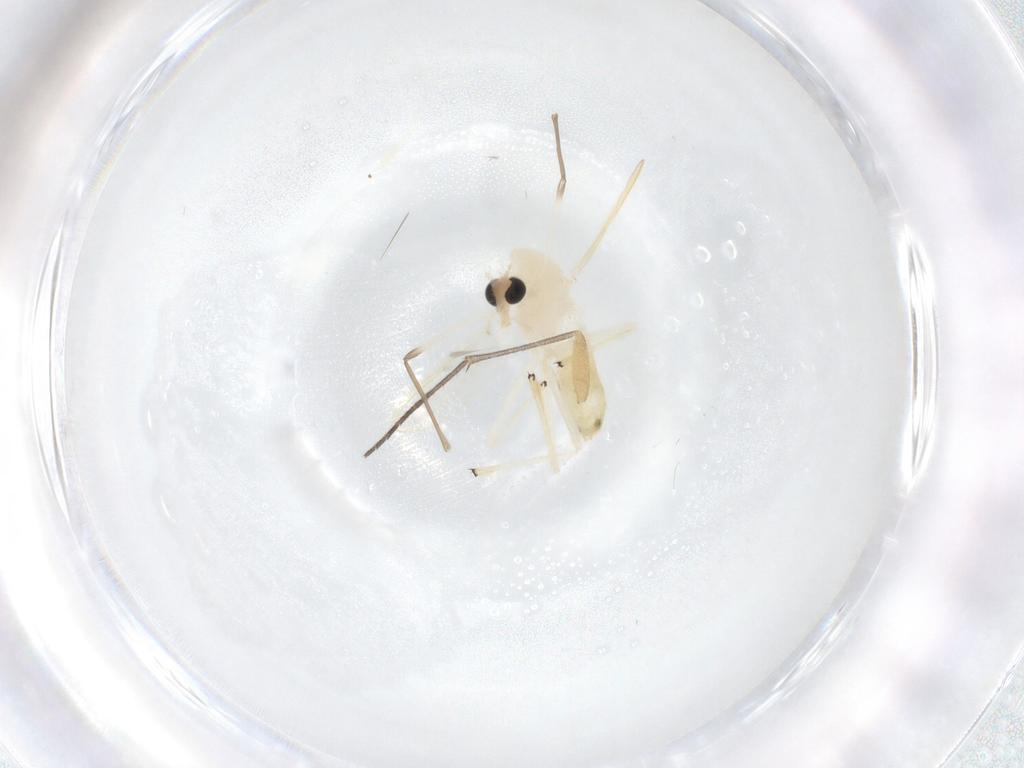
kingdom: Animalia
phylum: Arthropoda
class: Insecta
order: Diptera
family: Chironomidae
